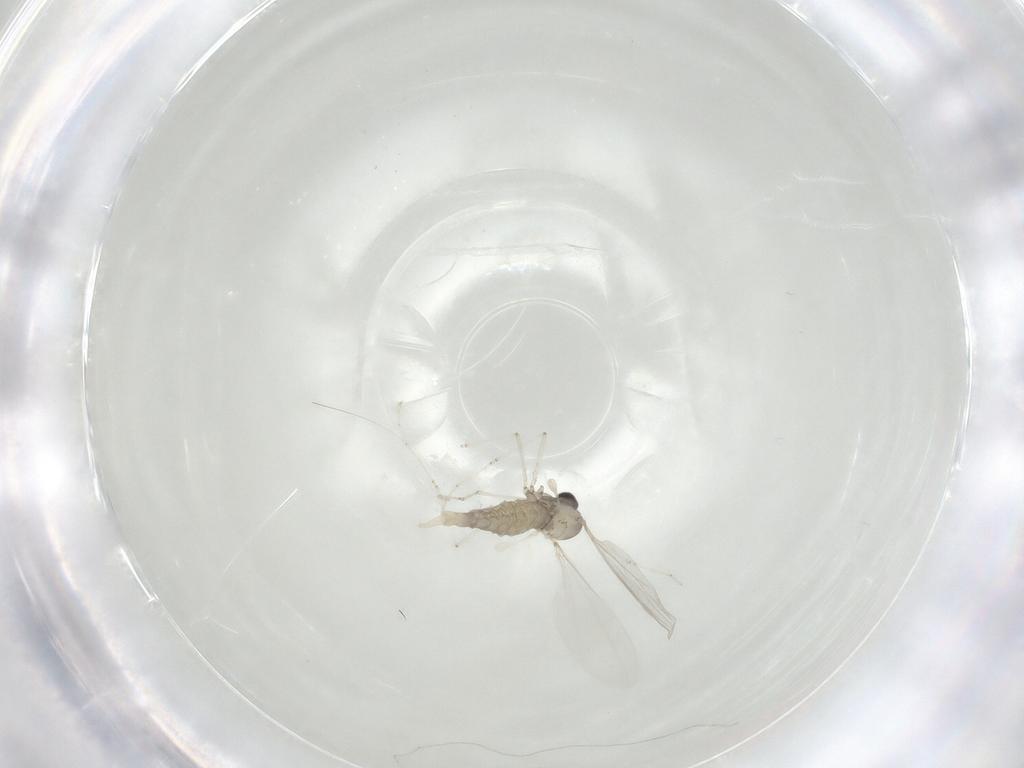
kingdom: Animalia
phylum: Arthropoda
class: Insecta
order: Diptera
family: Cecidomyiidae
